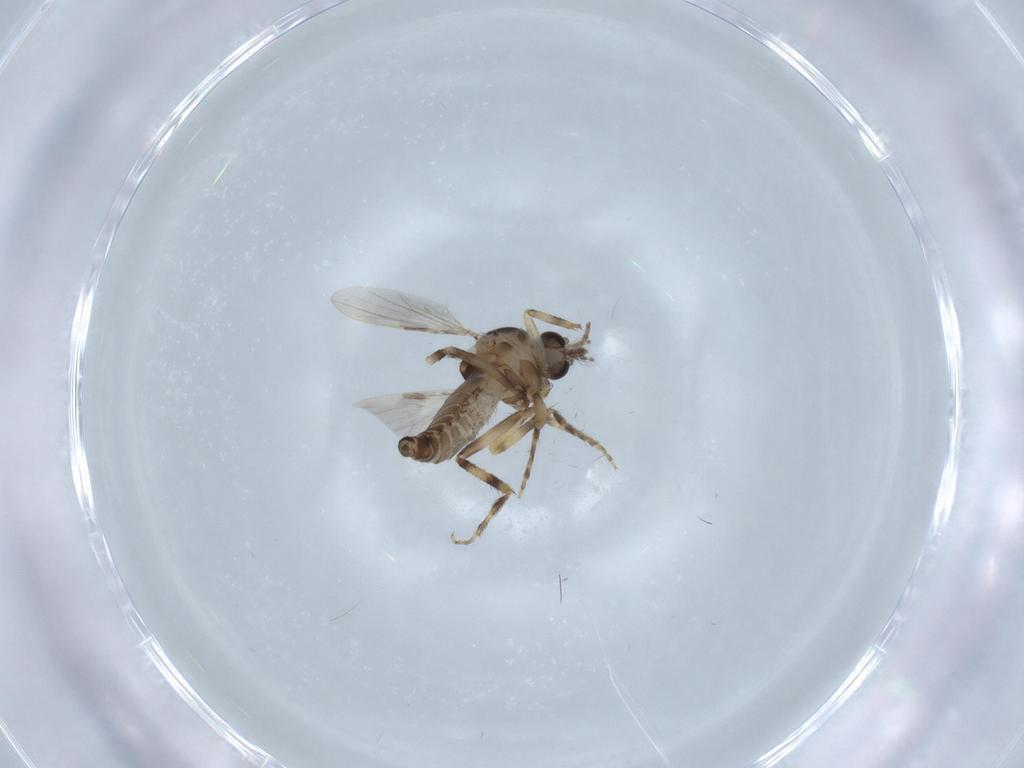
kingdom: Animalia
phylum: Arthropoda
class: Insecta
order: Diptera
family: Ceratopogonidae
